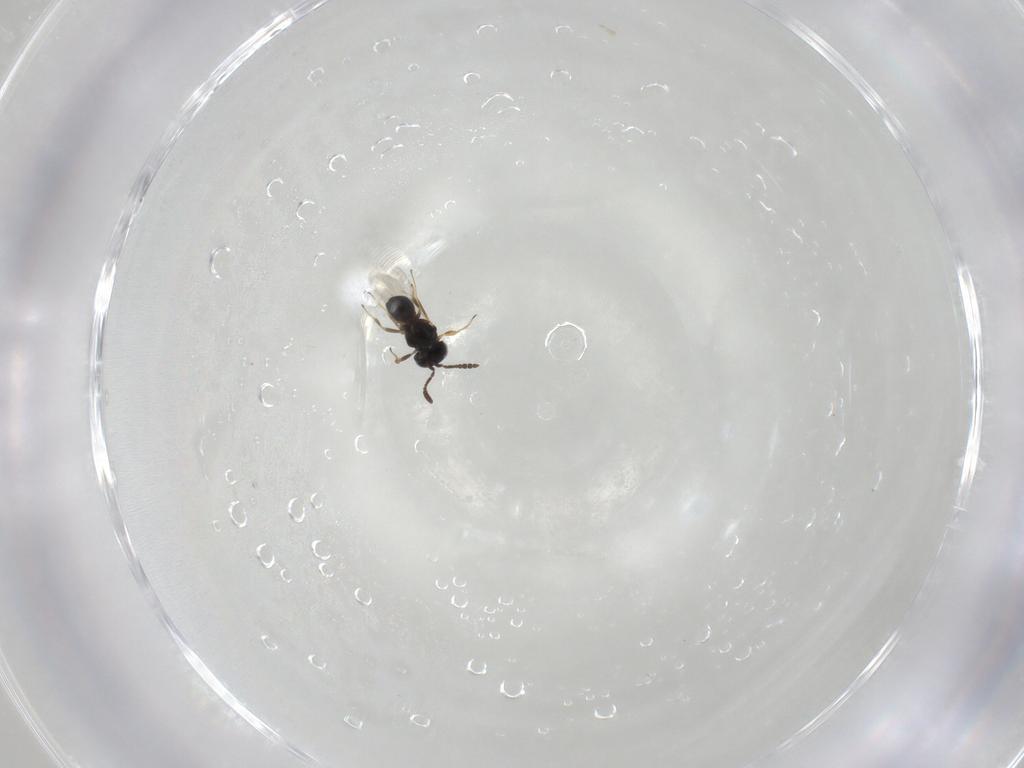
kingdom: Animalia
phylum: Arthropoda
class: Insecta
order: Hymenoptera
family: Scelionidae
